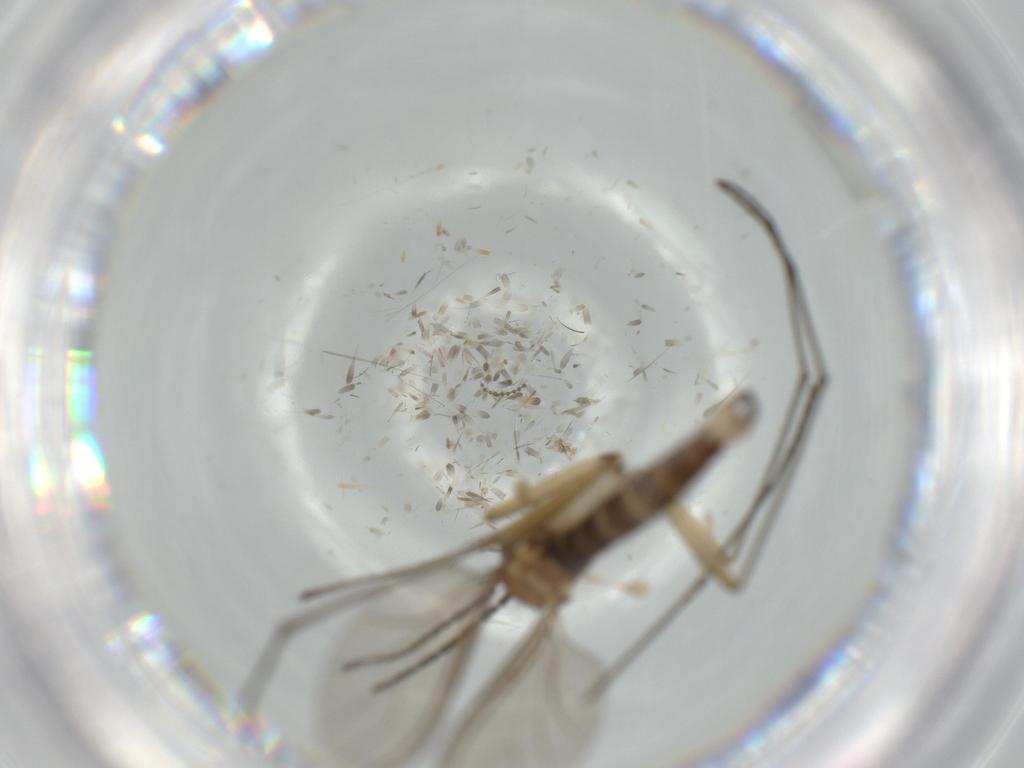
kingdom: Animalia
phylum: Arthropoda
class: Insecta
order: Diptera
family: Sciaridae
